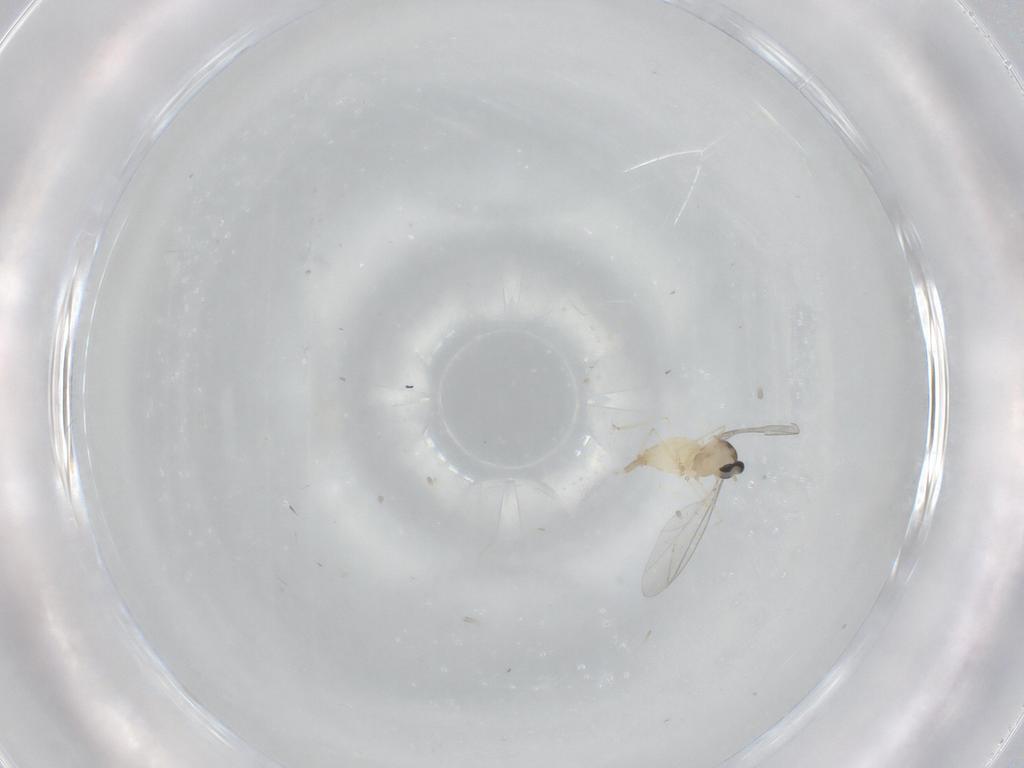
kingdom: Animalia
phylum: Arthropoda
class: Insecta
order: Diptera
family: Cecidomyiidae
